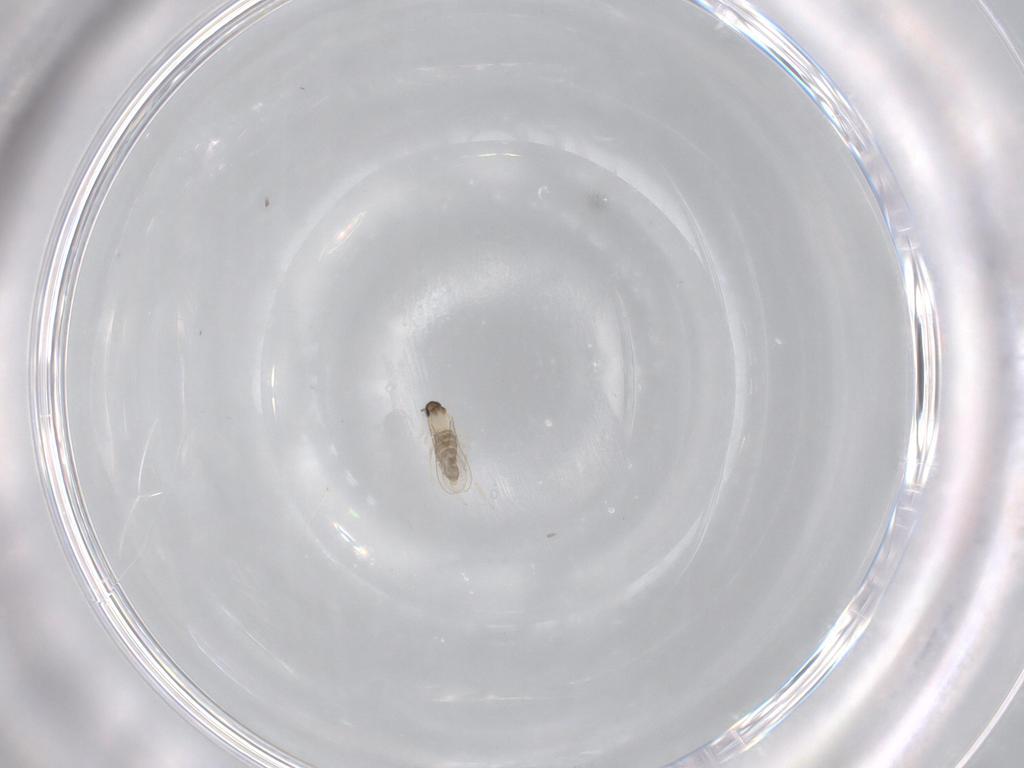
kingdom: Animalia
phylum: Arthropoda
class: Insecta
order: Diptera
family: Cecidomyiidae
